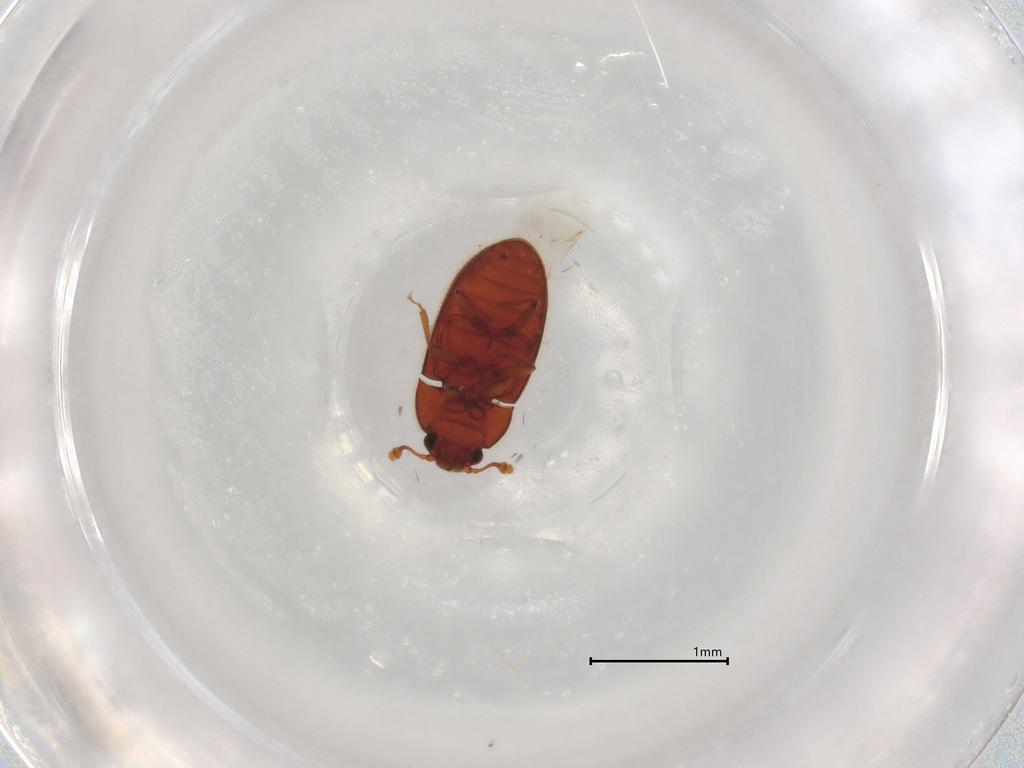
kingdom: Animalia
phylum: Arthropoda
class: Insecta
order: Coleoptera
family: Biphyllidae
